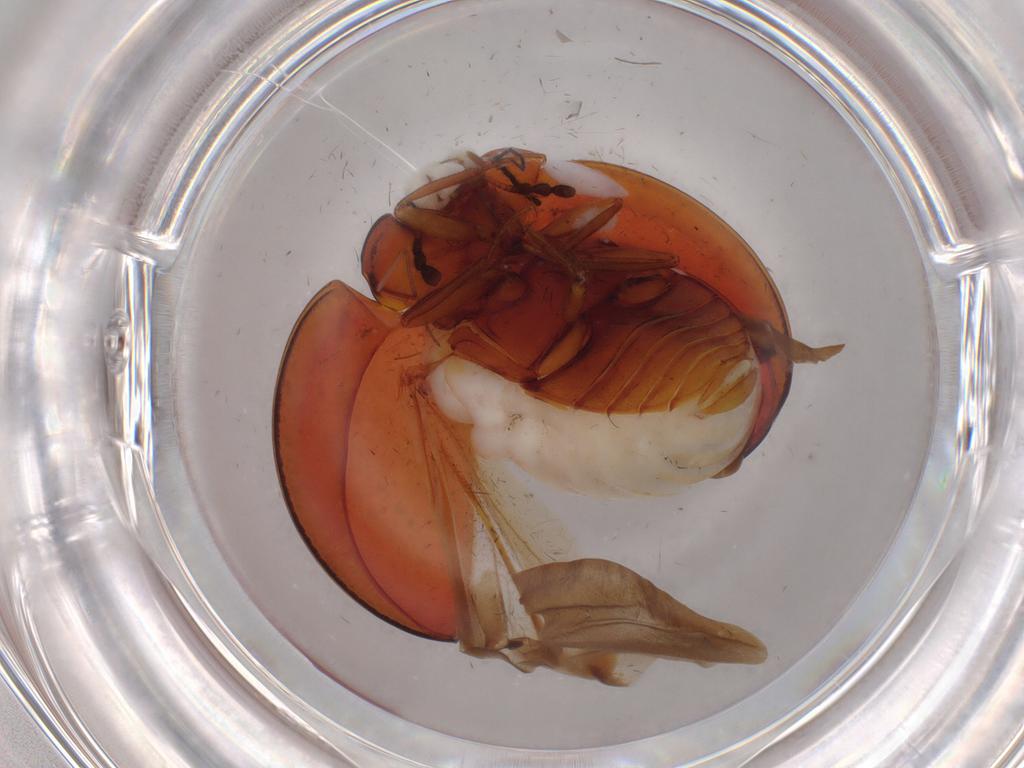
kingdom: Animalia
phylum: Arthropoda
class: Insecta
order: Coleoptera
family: Anamorphidae
